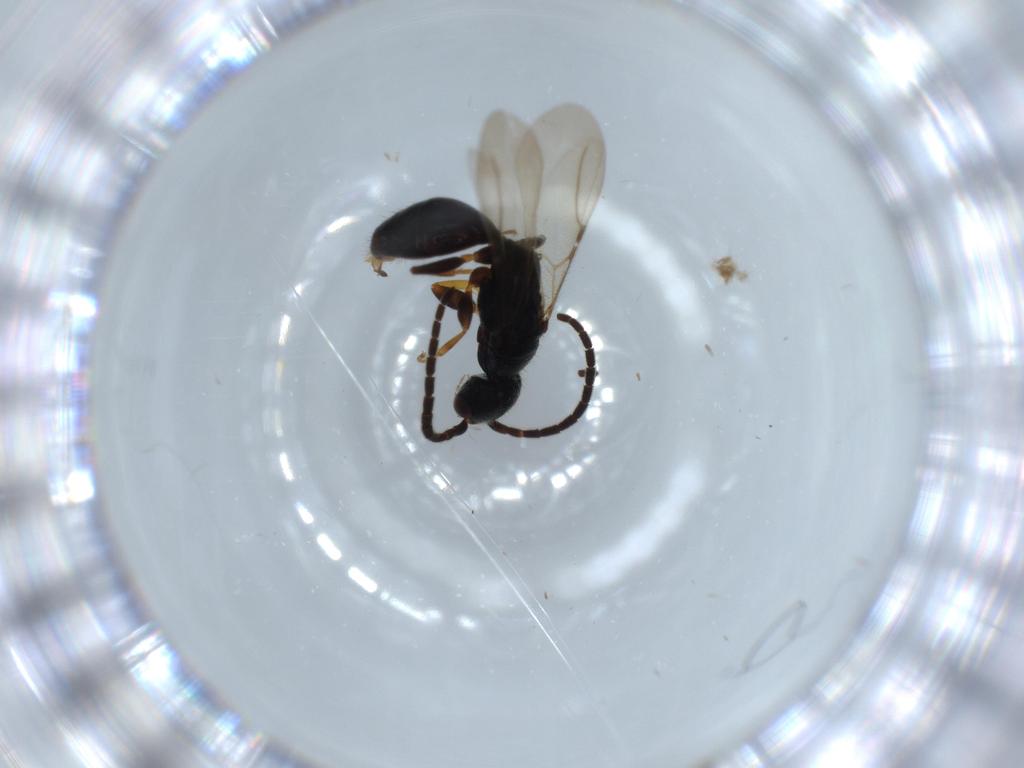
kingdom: Animalia
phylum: Arthropoda
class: Insecta
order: Hymenoptera
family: Bethylidae
